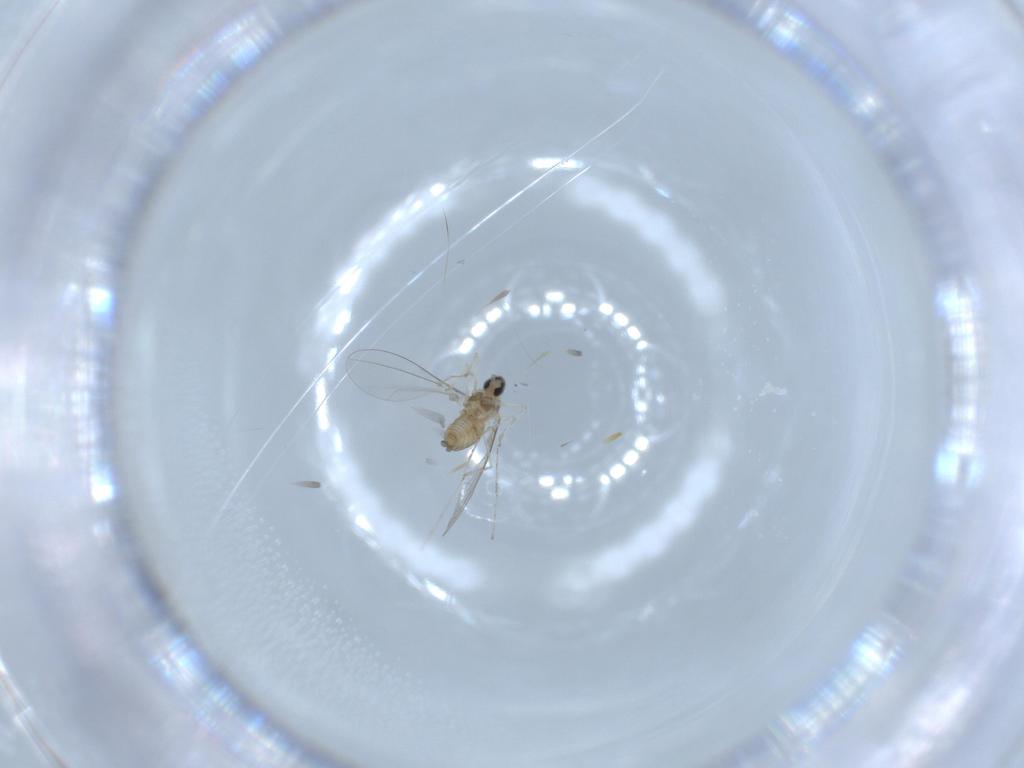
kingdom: Animalia
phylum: Arthropoda
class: Insecta
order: Diptera
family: Cecidomyiidae
